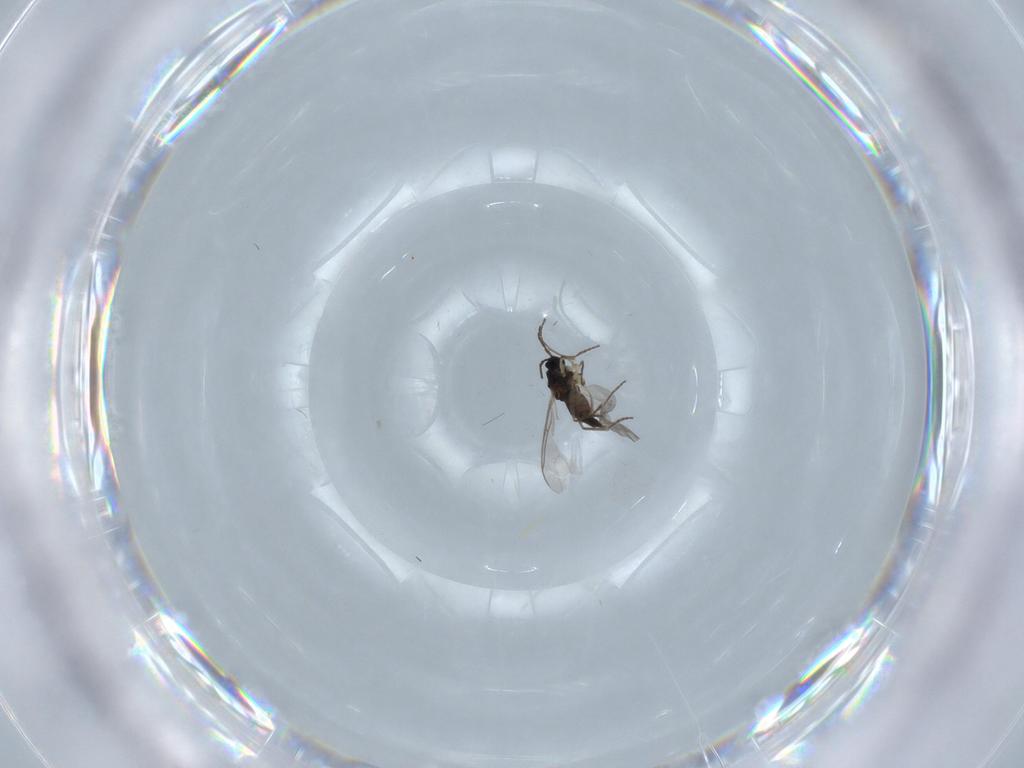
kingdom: Animalia
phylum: Arthropoda
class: Insecta
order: Diptera
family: Sciaridae
